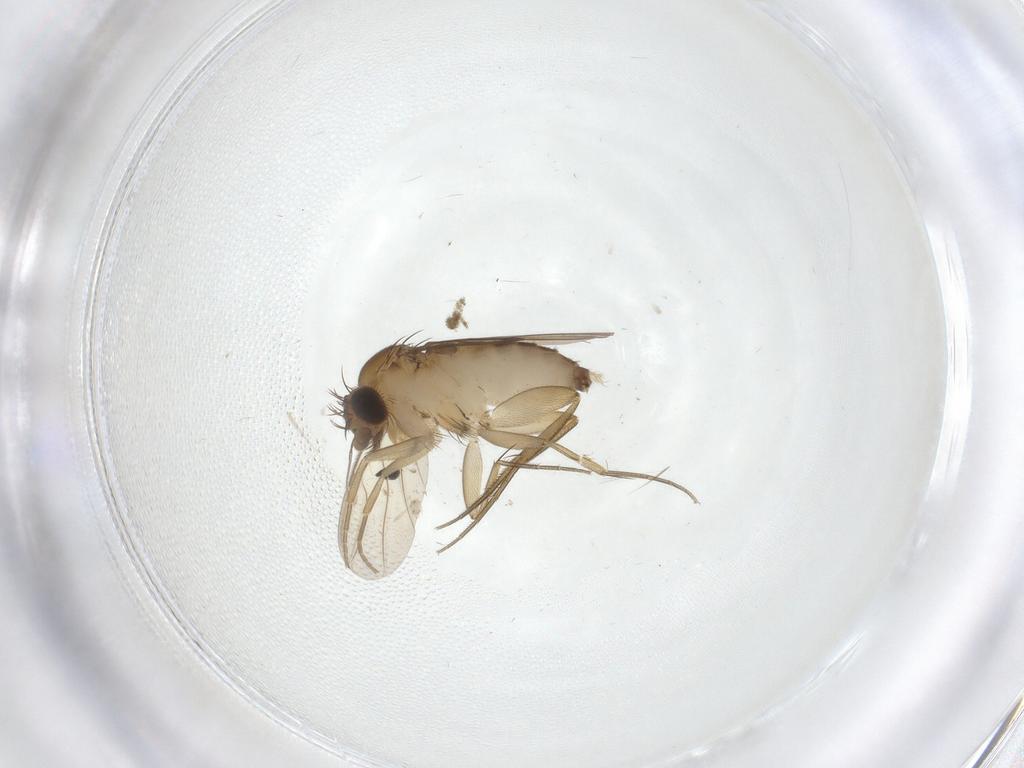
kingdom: Animalia
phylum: Arthropoda
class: Insecta
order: Diptera
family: Phoridae
